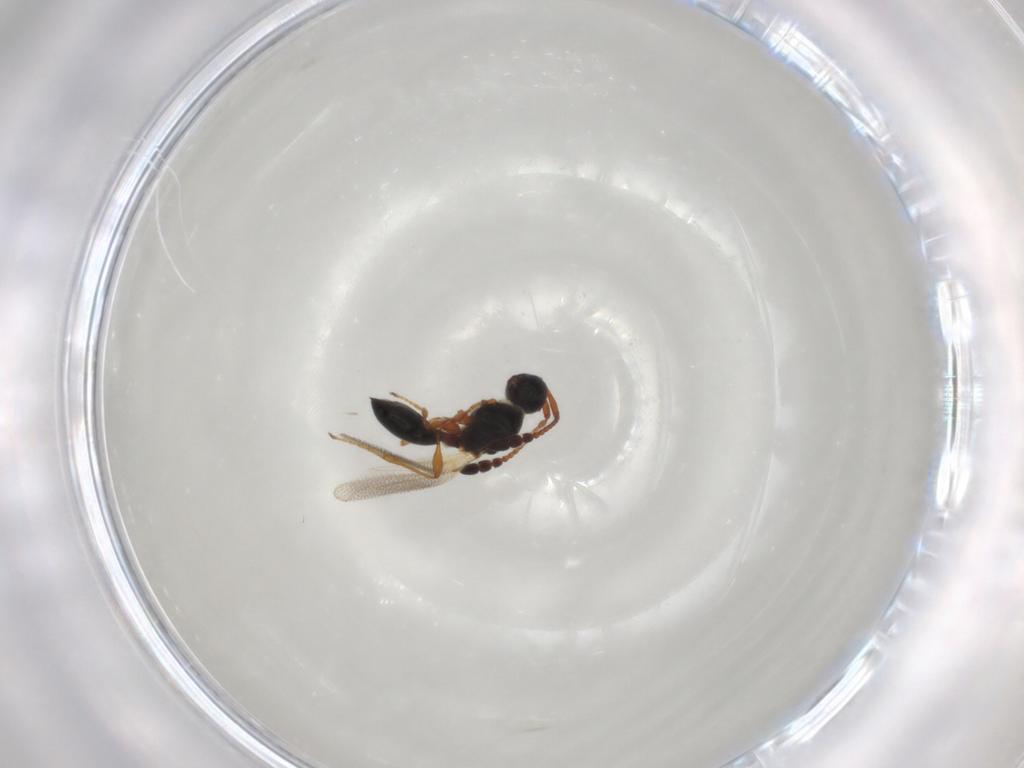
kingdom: Animalia
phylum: Arthropoda
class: Insecta
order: Hymenoptera
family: Diapriidae
